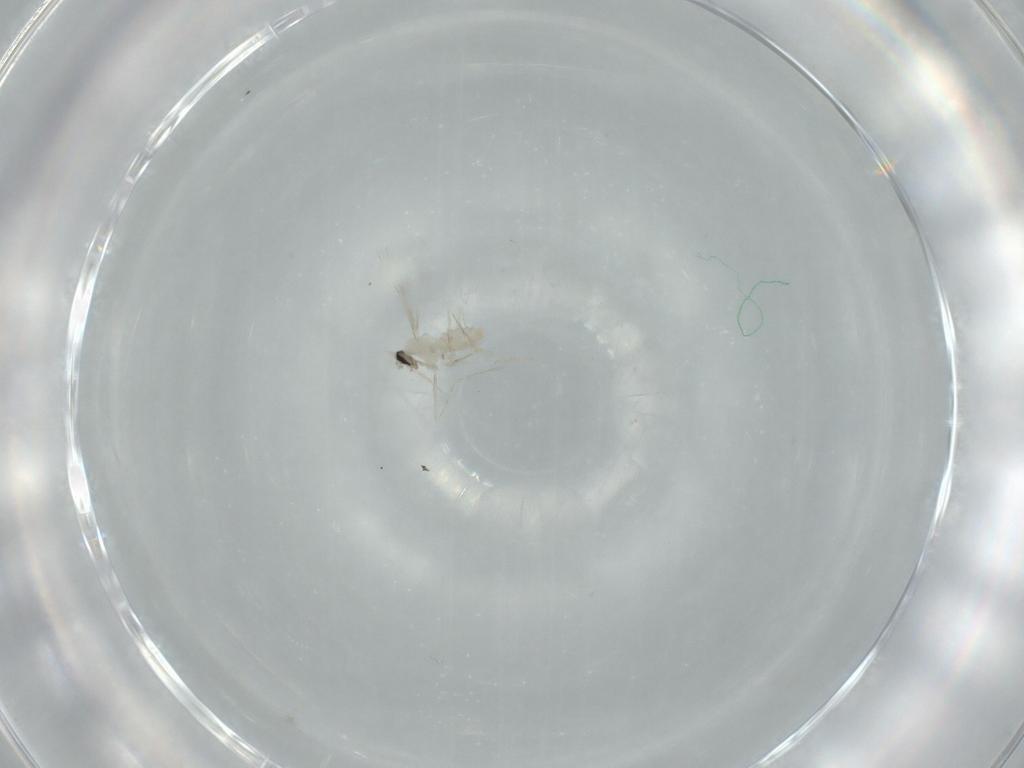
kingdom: Animalia
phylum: Arthropoda
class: Insecta
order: Diptera
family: Cecidomyiidae
